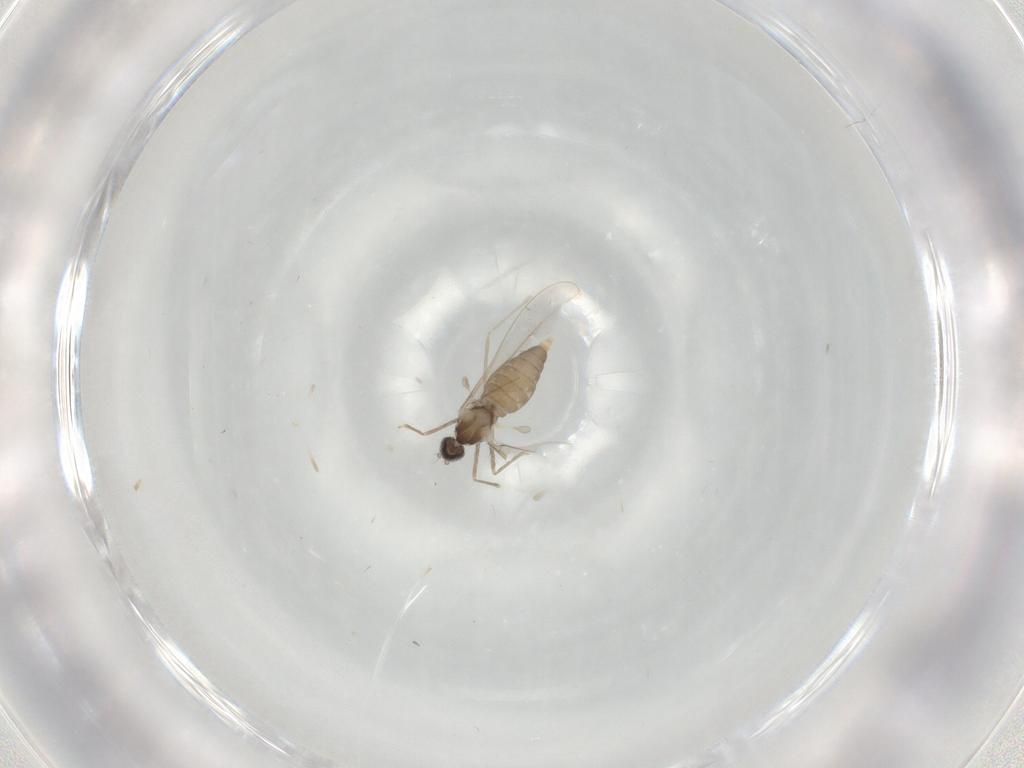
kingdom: Animalia
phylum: Arthropoda
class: Insecta
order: Diptera
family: Cecidomyiidae
